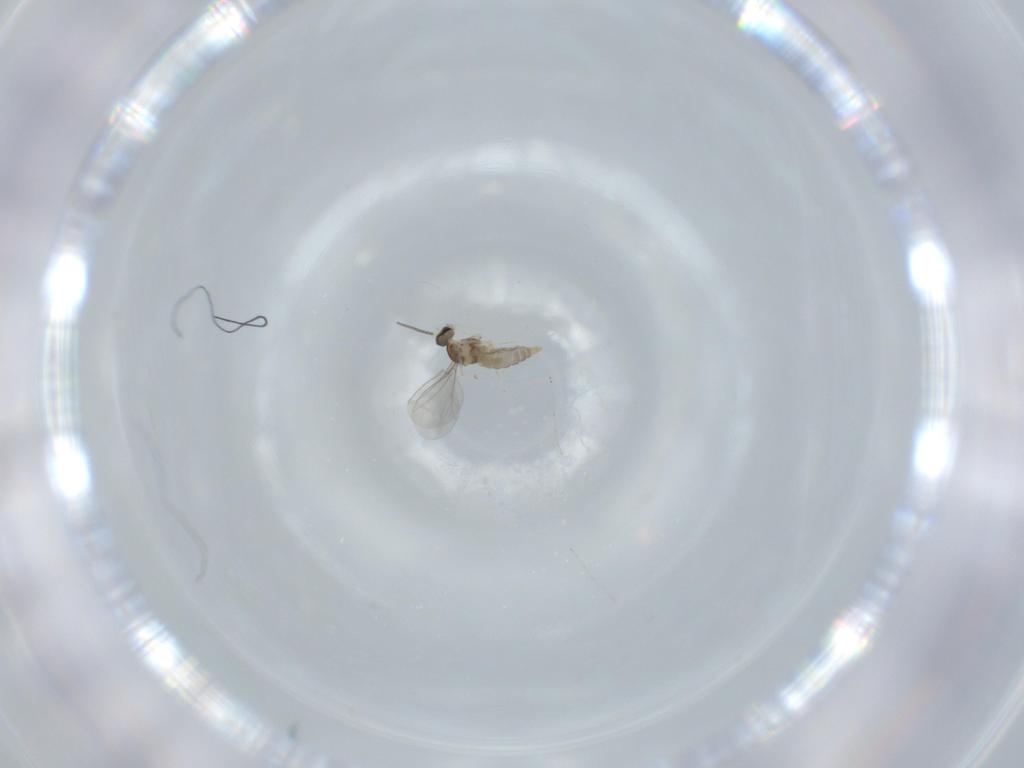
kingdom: Animalia
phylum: Arthropoda
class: Insecta
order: Diptera
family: Cecidomyiidae
